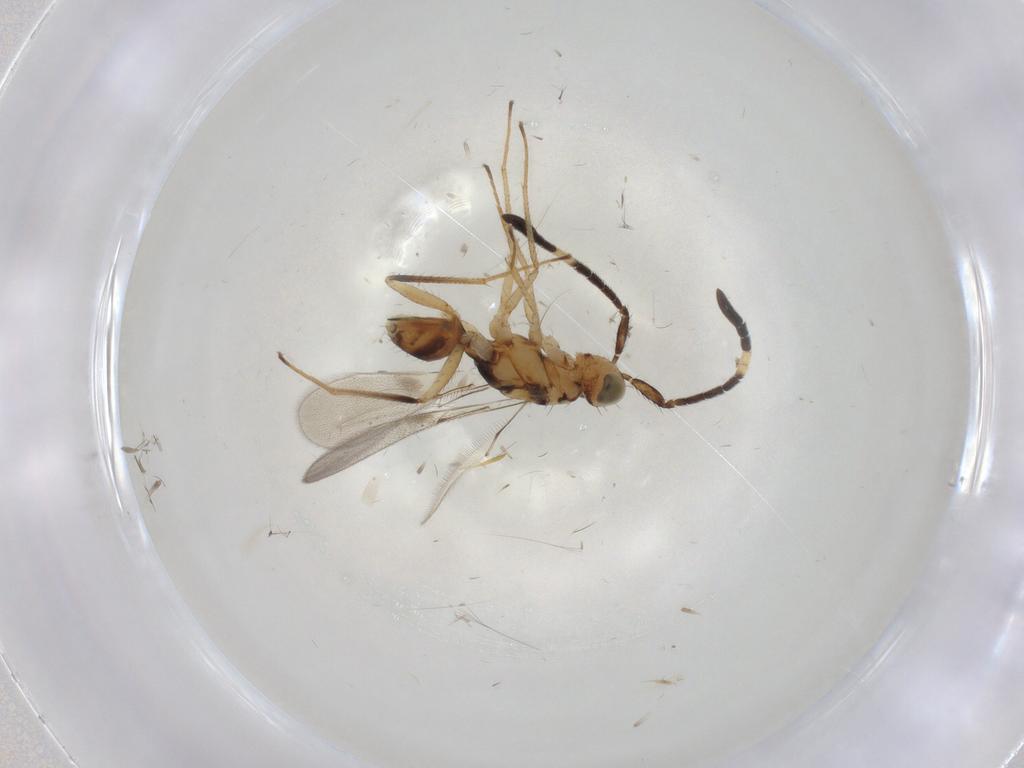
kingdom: Animalia
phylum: Arthropoda
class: Insecta
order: Hymenoptera
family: Mymaridae
